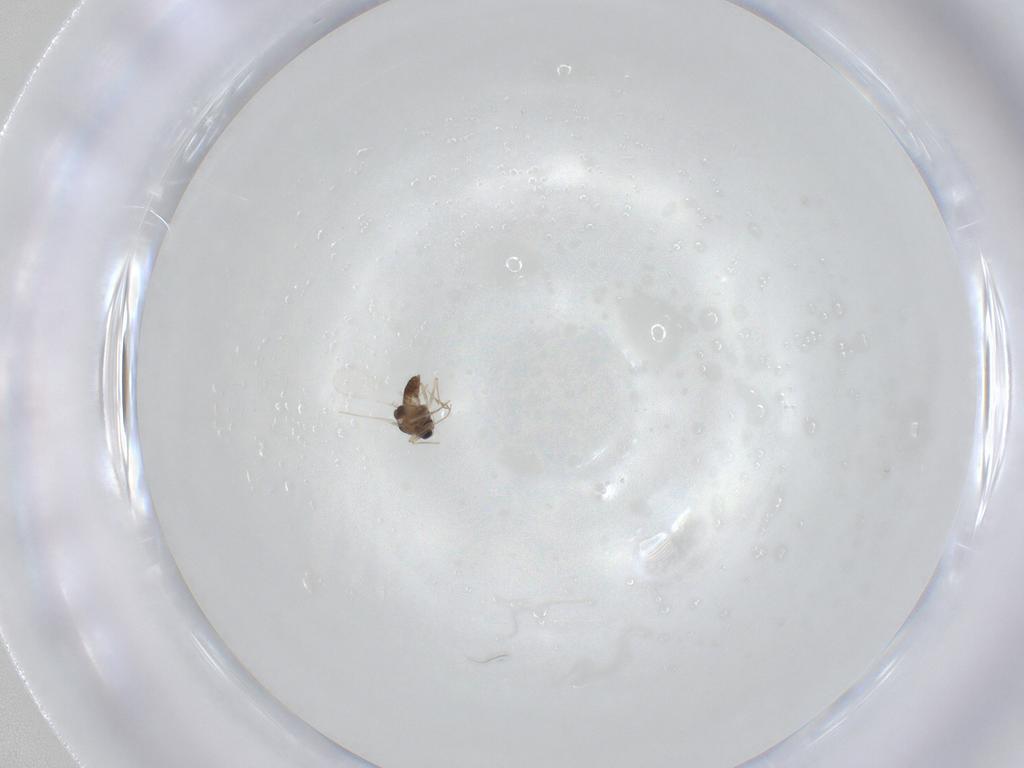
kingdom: Animalia
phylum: Arthropoda
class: Insecta
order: Diptera
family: Chironomidae
